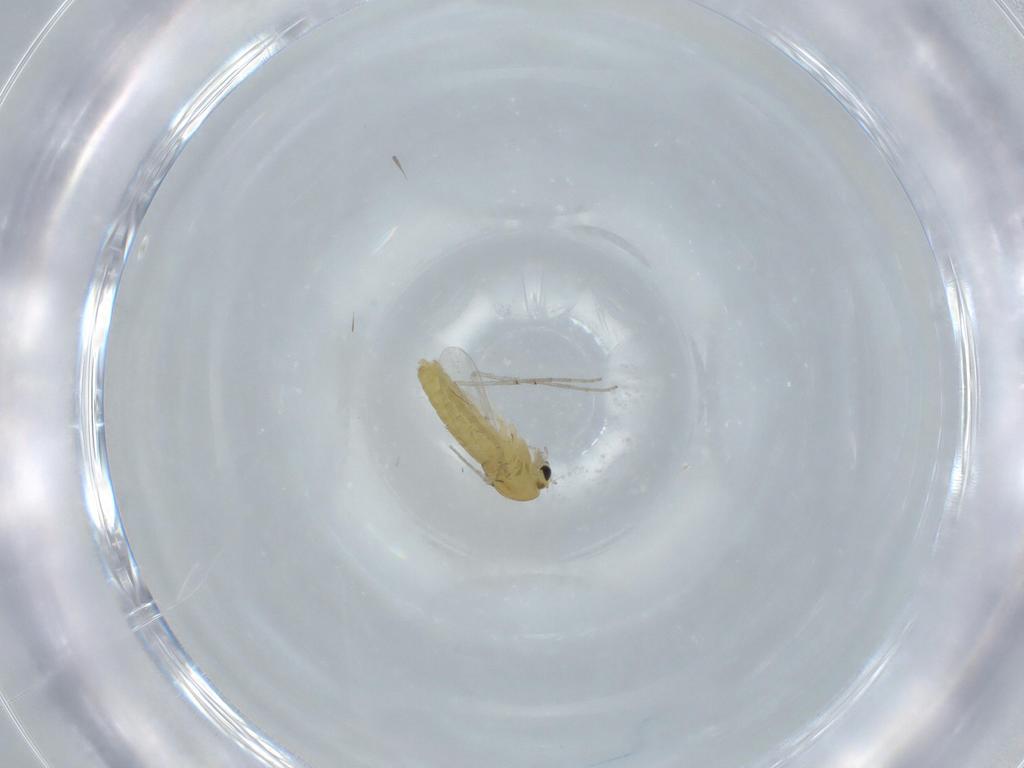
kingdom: Animalia
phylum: Arthropoda
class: Insecta
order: Diptera
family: Chironomidae
